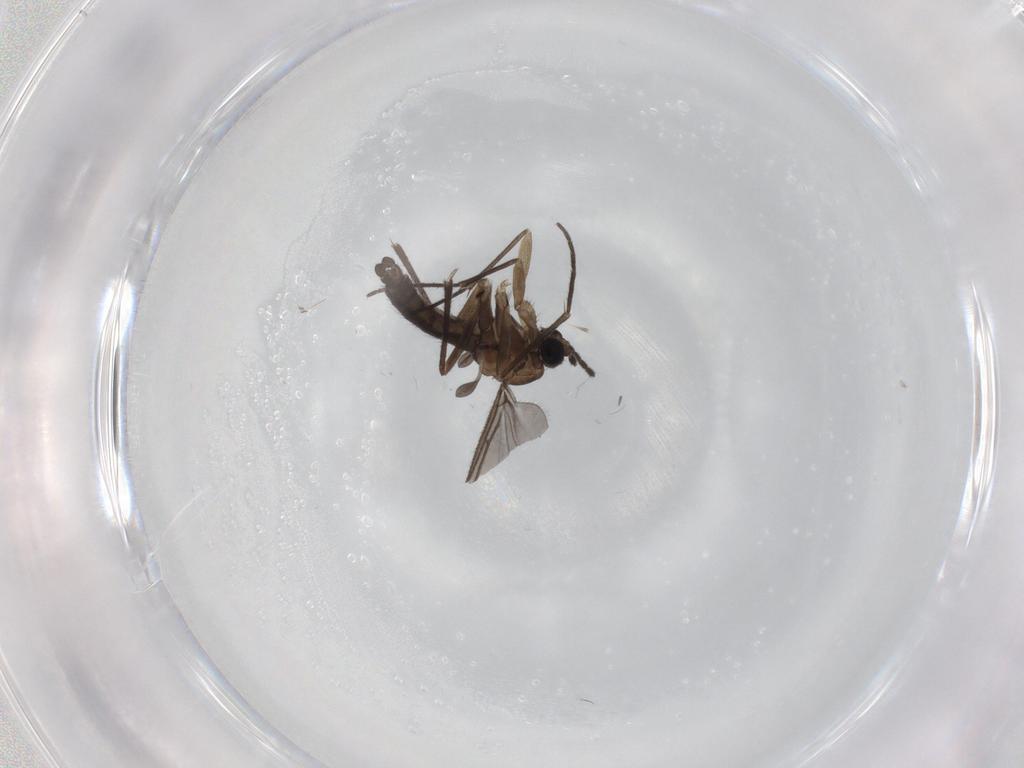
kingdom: Animalia
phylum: Arthropoda
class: Insecta
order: Diptera
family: Sciaridae
